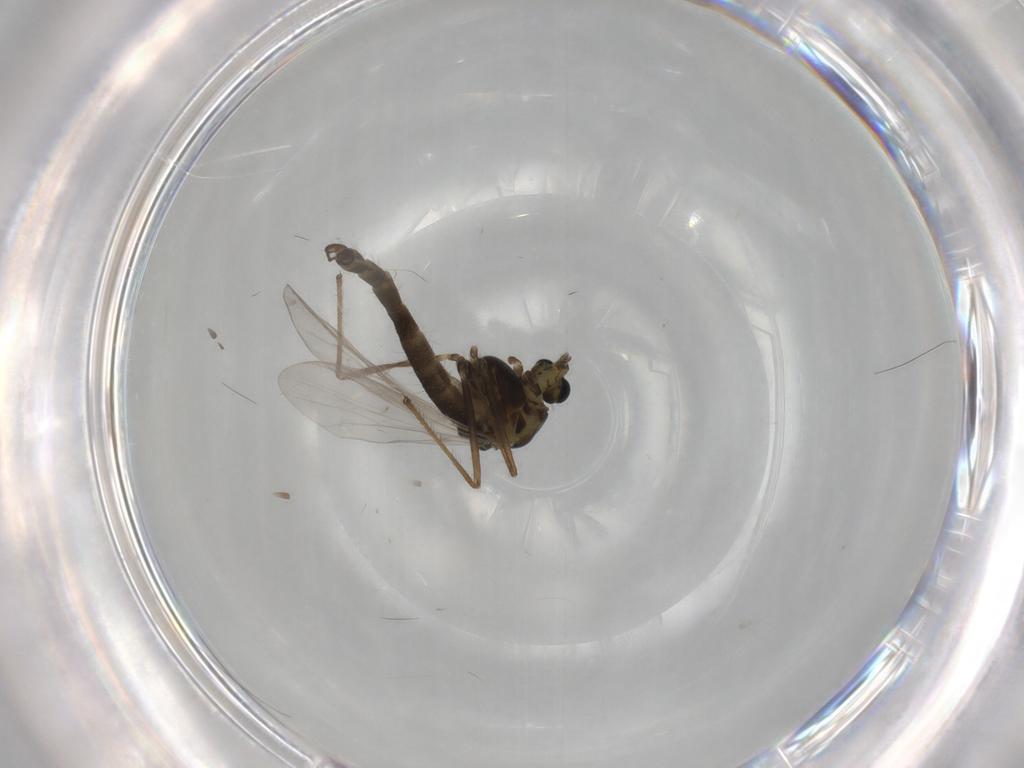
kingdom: Animalia
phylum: Arthropoda
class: Insecta
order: Diptera
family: Chironomidae
